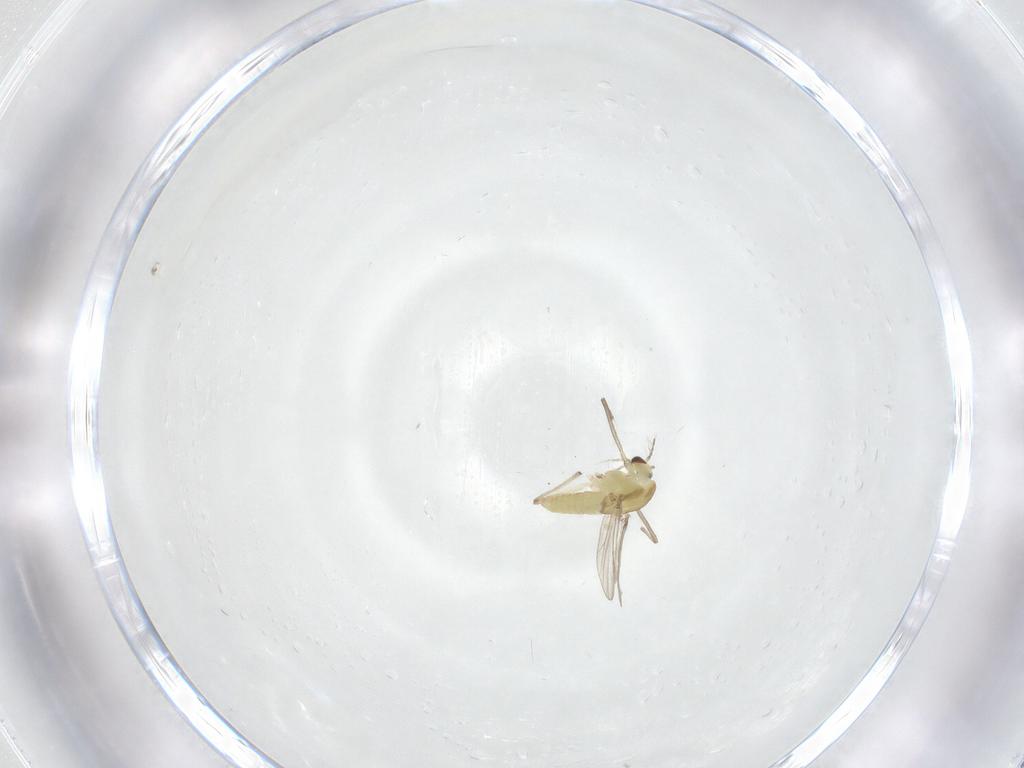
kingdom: Animalia
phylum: Arthropoda
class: Insecta
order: Diptera
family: Chironomidae
